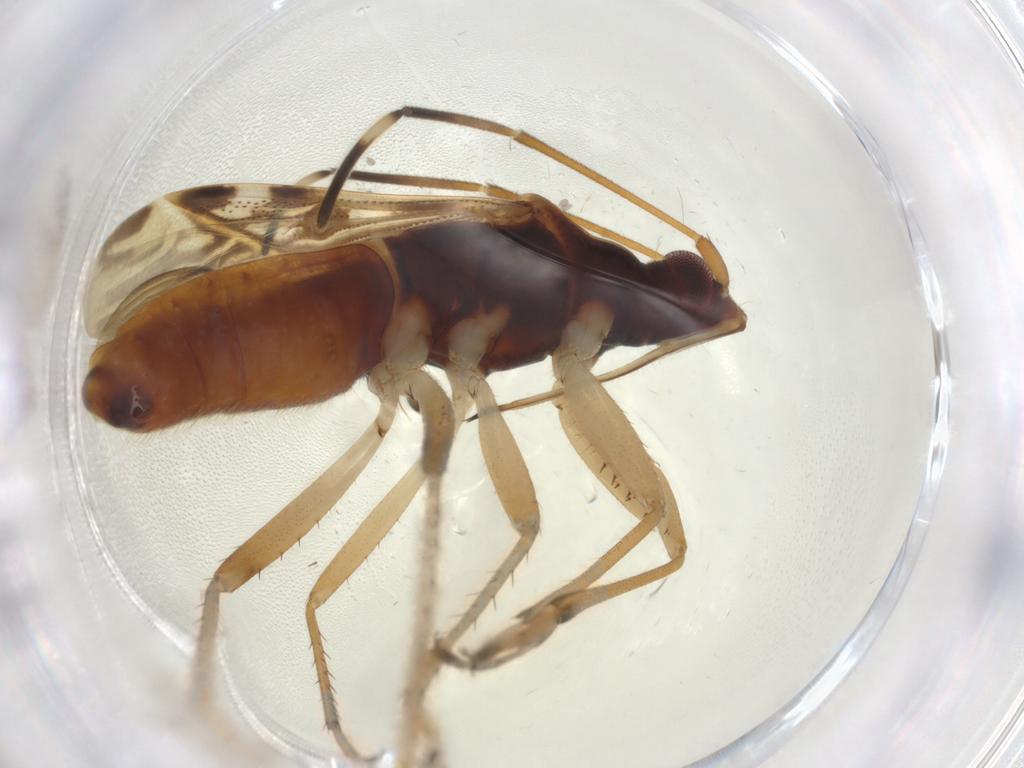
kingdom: Animalia
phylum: Arthropoda
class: Insecta
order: Hemiptera
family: Rhyparochromidae
